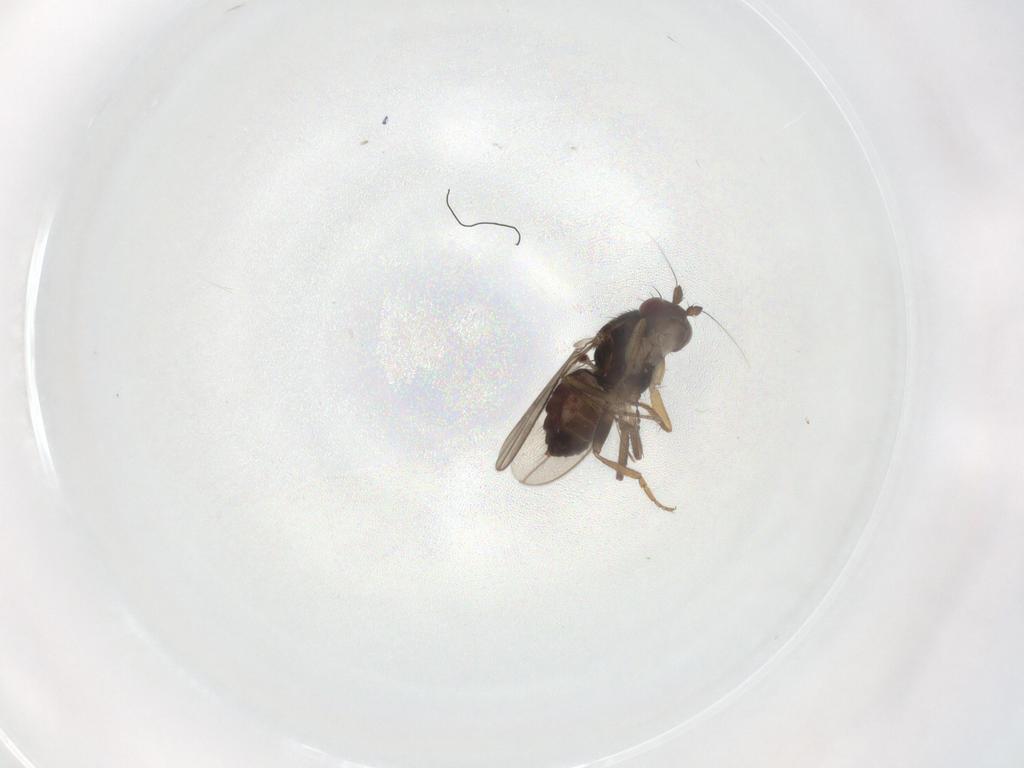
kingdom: Animalia
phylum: Arthropoda
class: Insecta
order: Diptera
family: Sphaeroceridae
